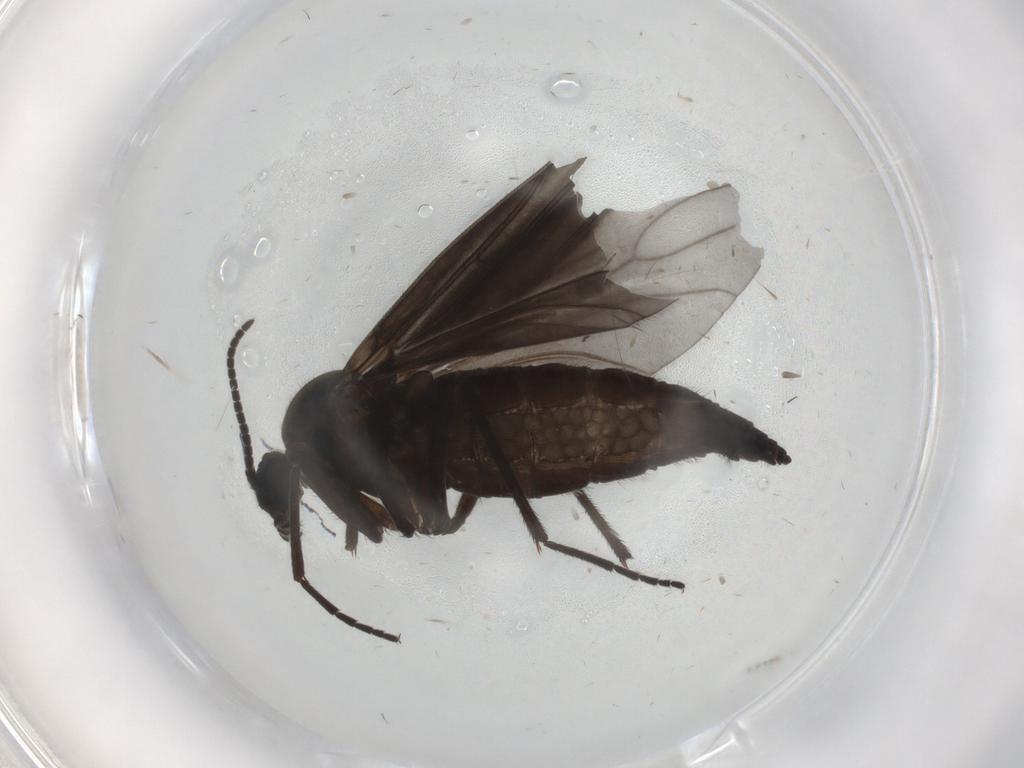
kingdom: Animalia
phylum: Arthropoda
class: Insecta
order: Diptera
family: Sciaridae
